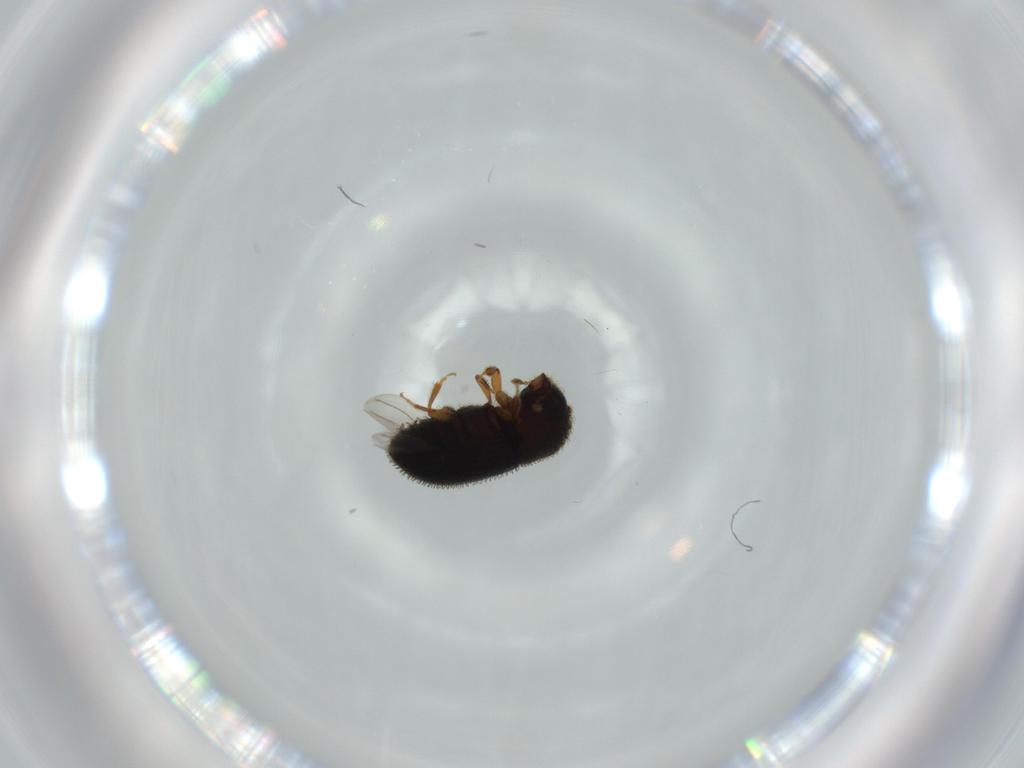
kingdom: Animalia
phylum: Arthropoda
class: Insecta
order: Coleoptera
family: Curculionidae
